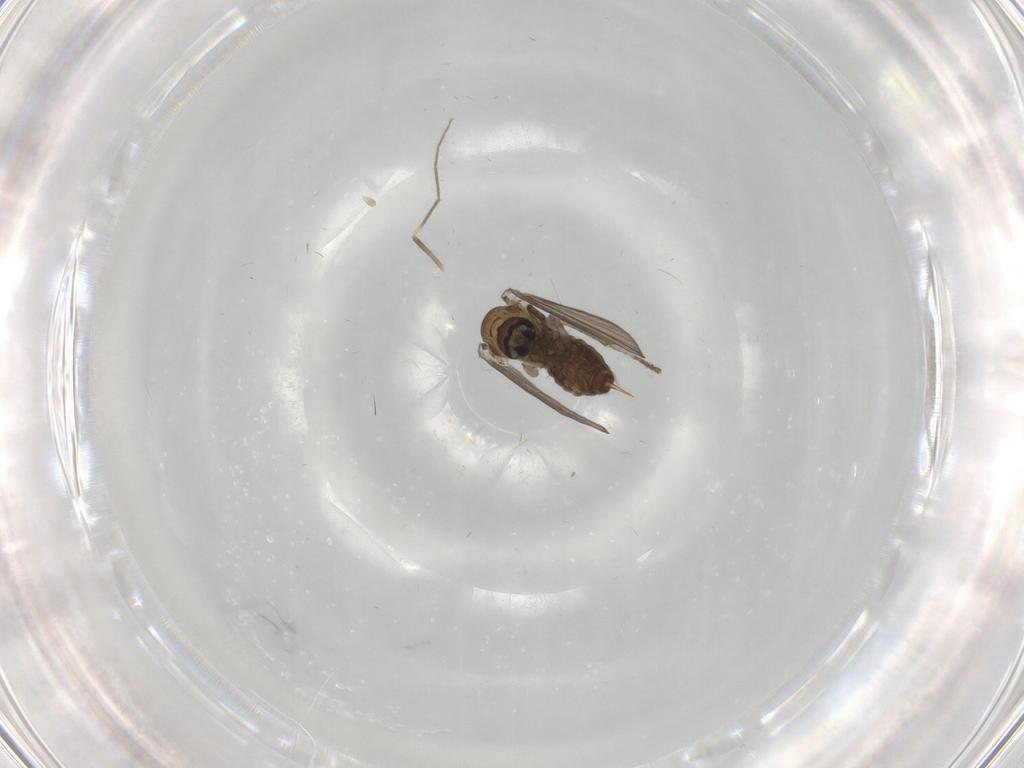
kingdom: Animalia
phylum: Arthropoda
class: Insecta
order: Diptera
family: Psychodidae
